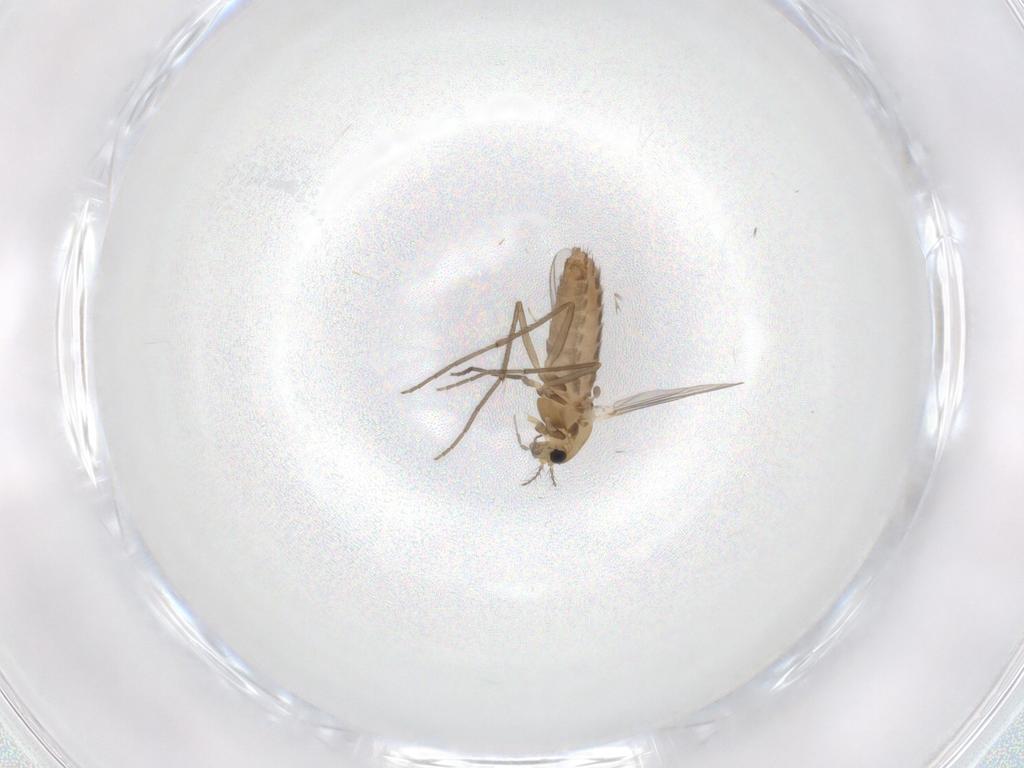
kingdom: Animalia
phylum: Arthropoda
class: Insecta
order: Diptera
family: Chironomidae
